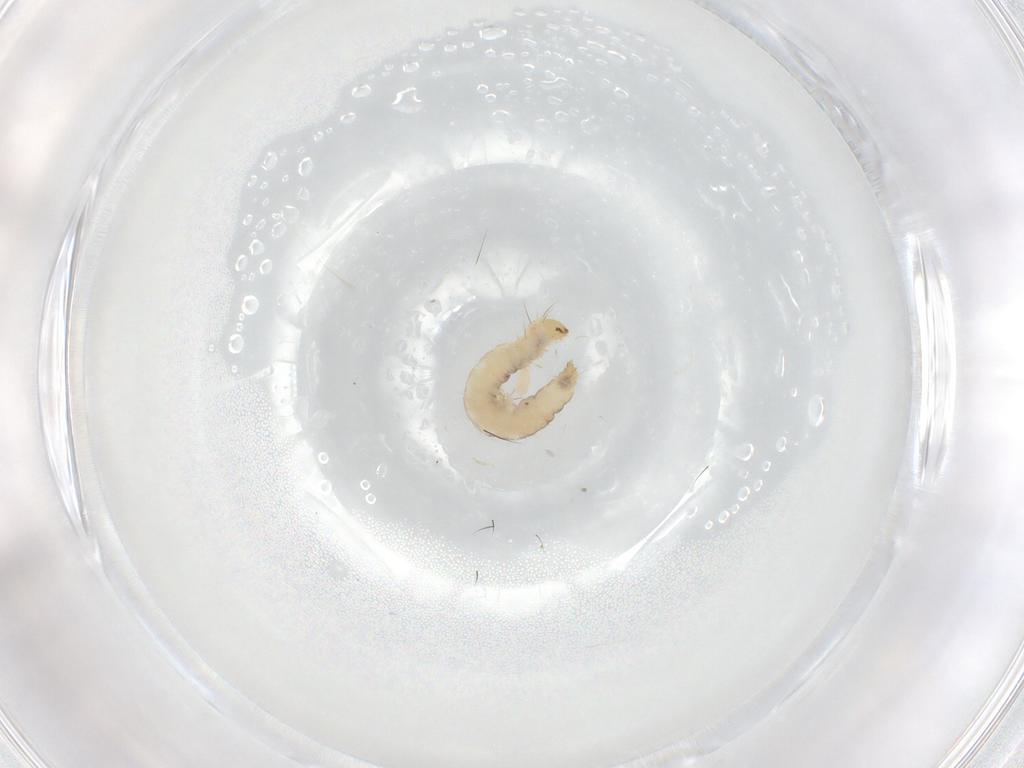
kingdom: Animalia
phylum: Arthropoda
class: Insecta
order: Lepidoptera
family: Bucculatricidae
